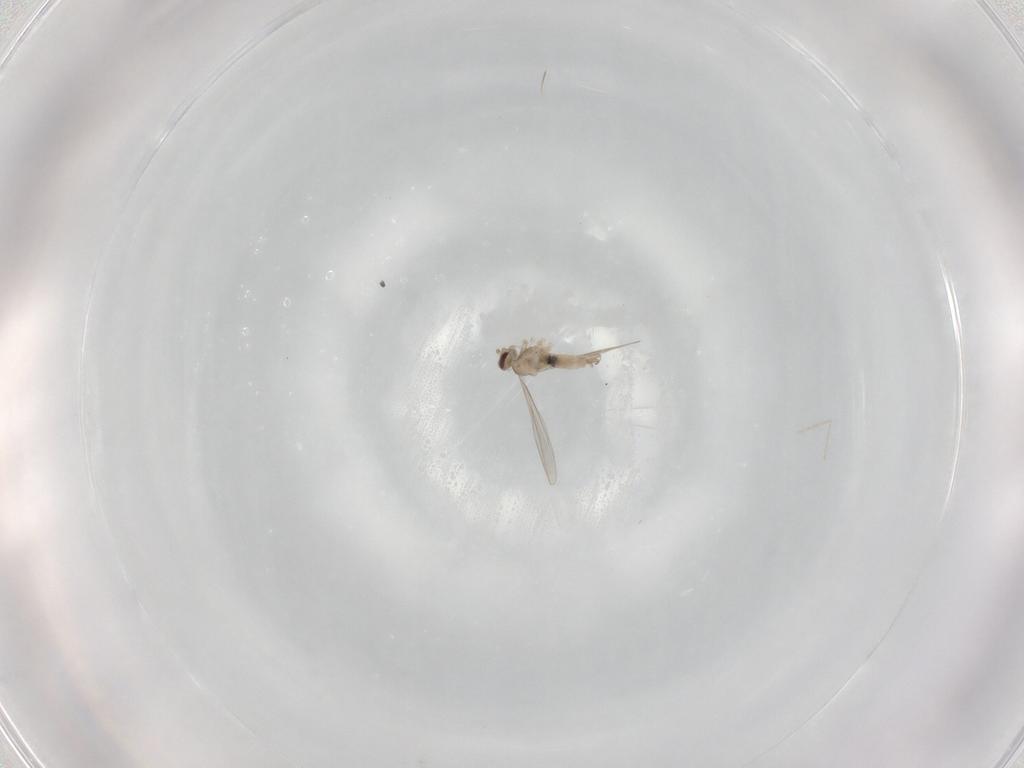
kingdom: Animalia
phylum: Arthropoda
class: Insecta
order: Diptera
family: Cecidomyiidae
